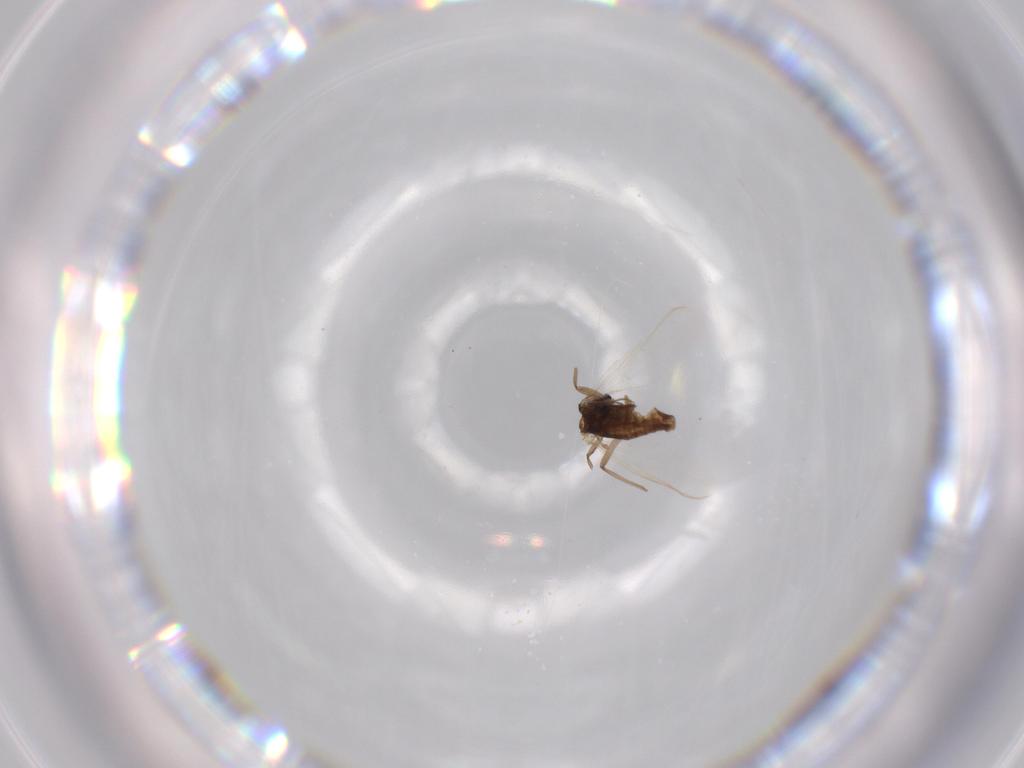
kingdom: Animalia
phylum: Arthropoda
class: Insecta
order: Diptera
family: Chironomidae
